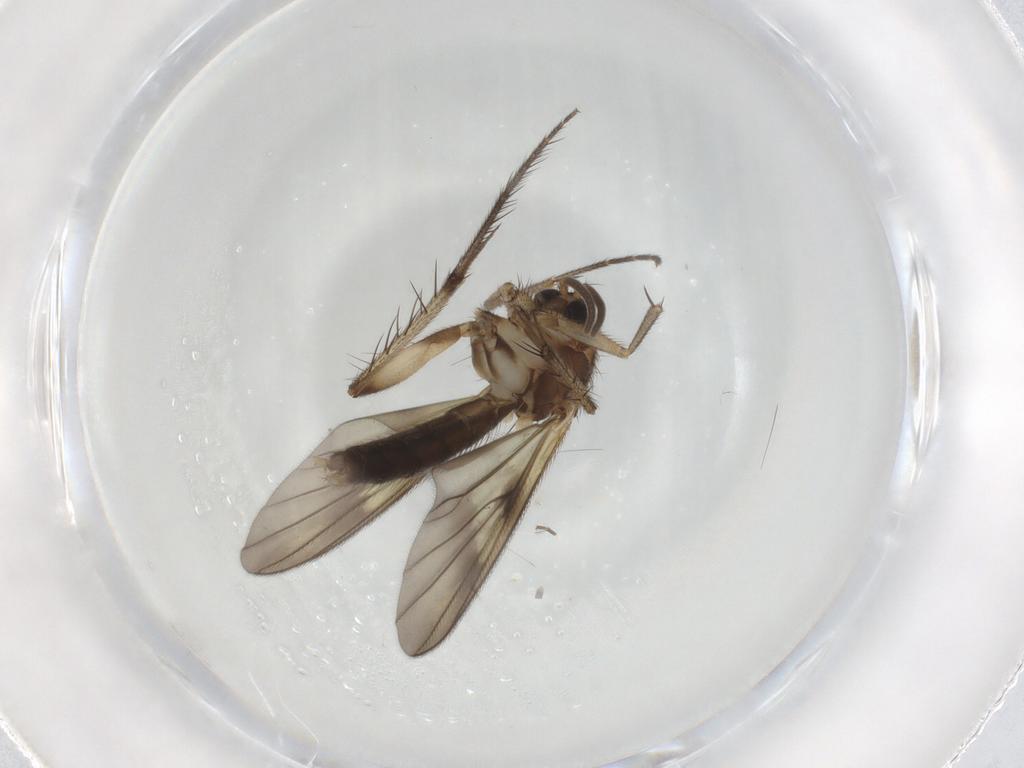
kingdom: Animalia
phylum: Arthropoda
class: Insecta
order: Diptera
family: Mycetophilidae
